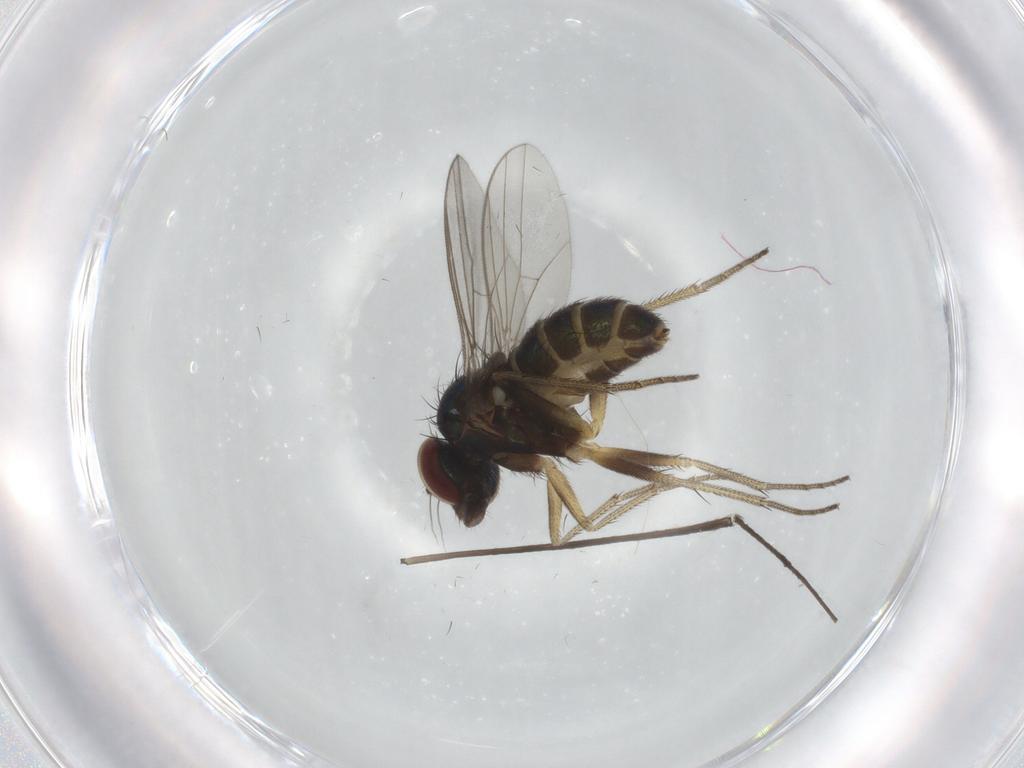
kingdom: Animalia
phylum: Arthropoda
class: Insecta
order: Diptera
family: Dolichopodidae
